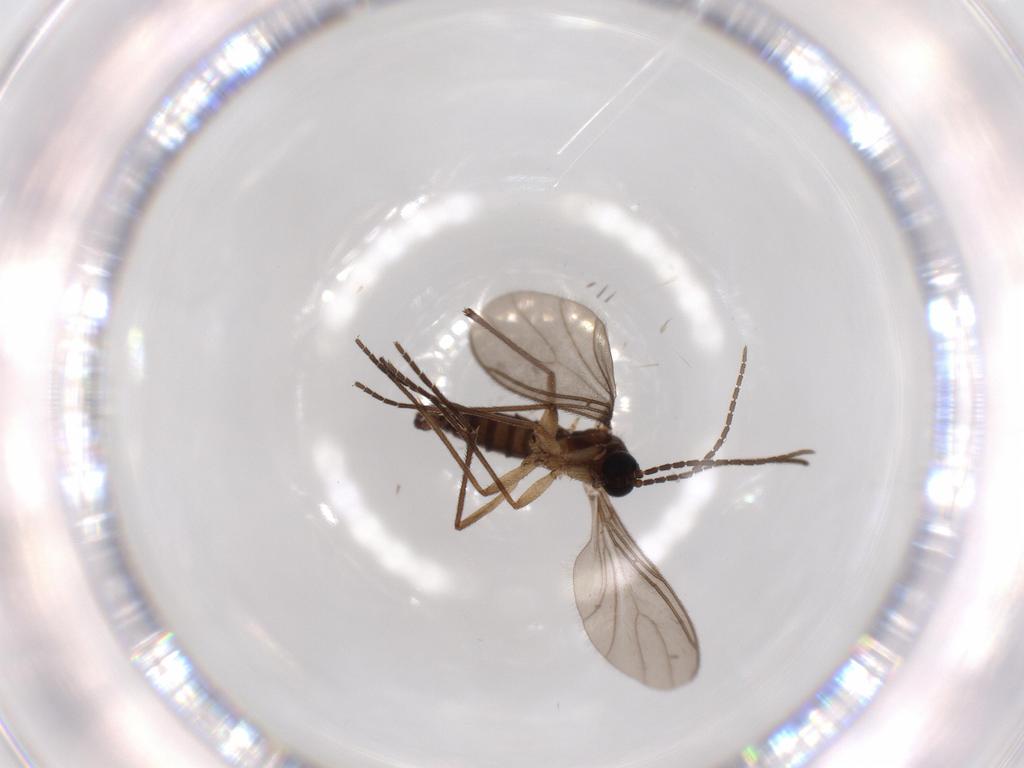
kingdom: Animalia
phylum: Arthropoda
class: Insecta
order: Diptera
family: Sciaridae
